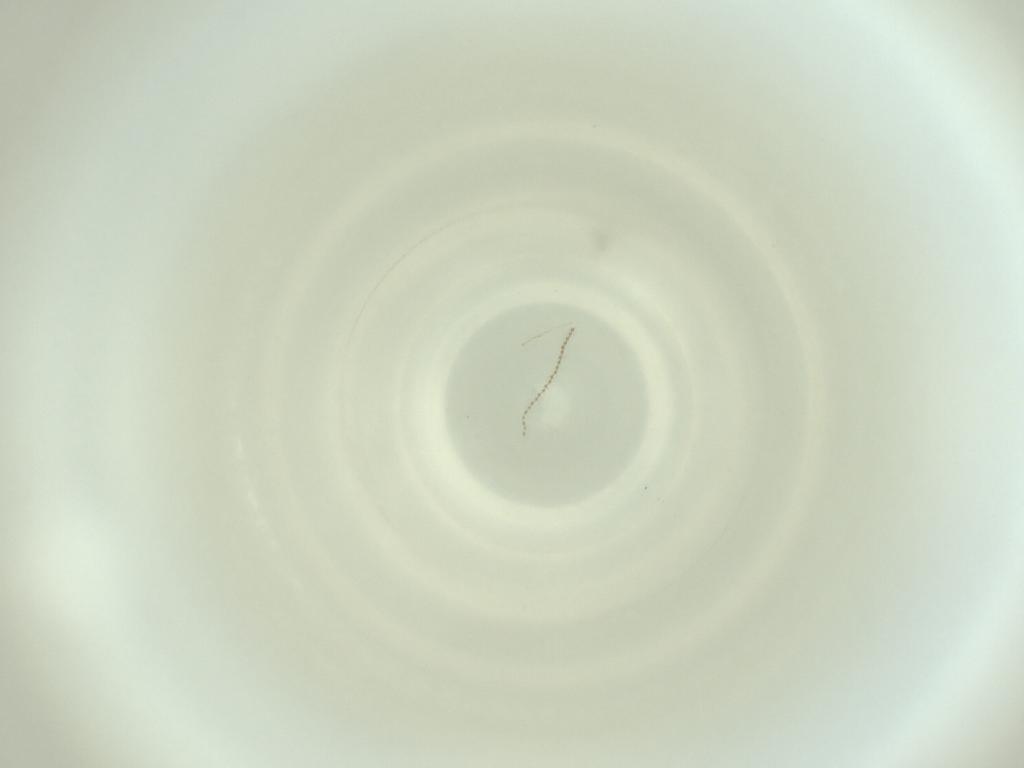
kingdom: Animalia
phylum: Arthropoda
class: Insecta
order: Diptera
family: Cecidomyiidae
